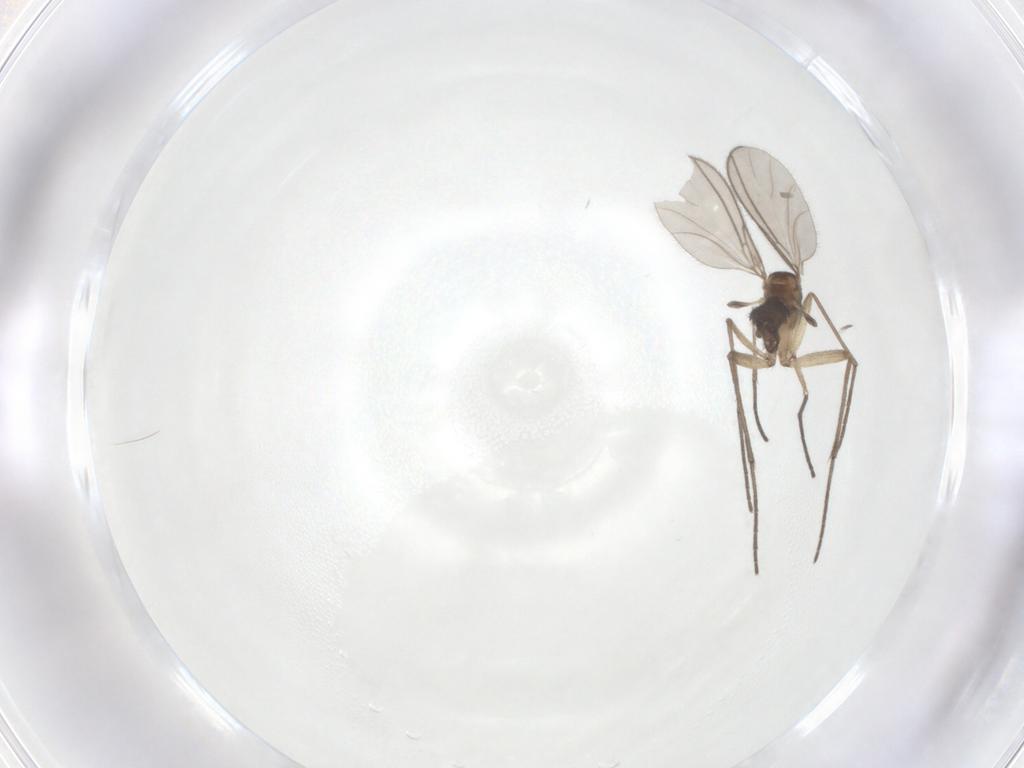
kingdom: Animalia
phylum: Arthropoda
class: Insecta
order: Diptera
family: Sciaridae
